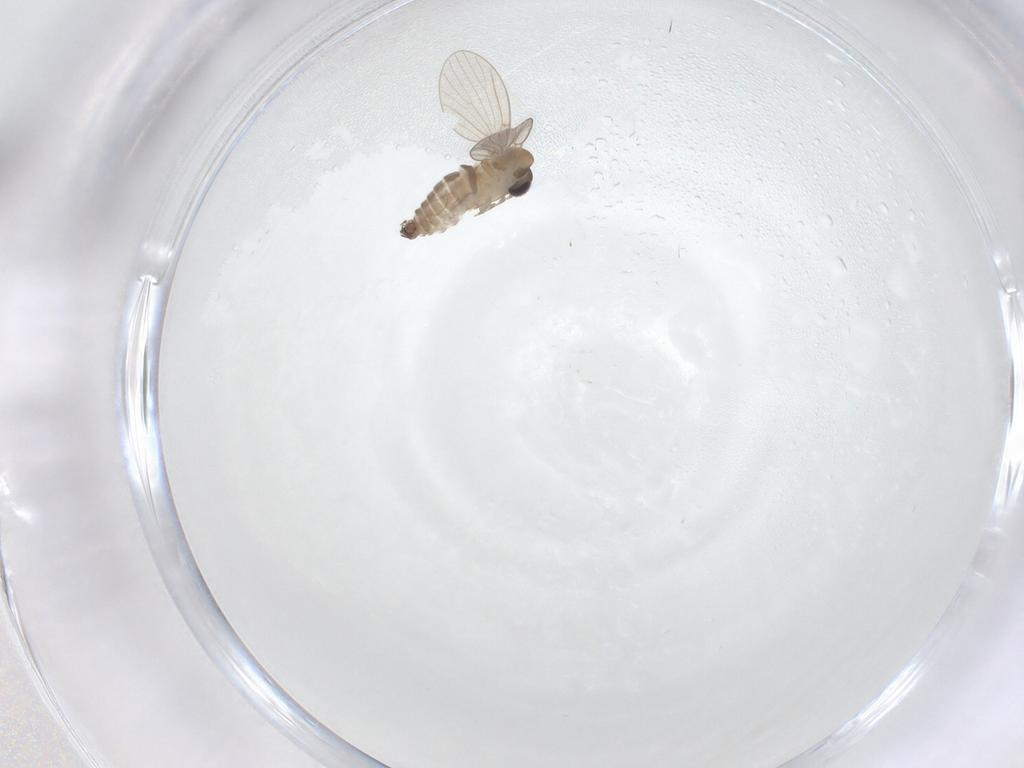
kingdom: Animalia
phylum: Arthropoda
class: Insecta
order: Diptera
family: Psychodidae
